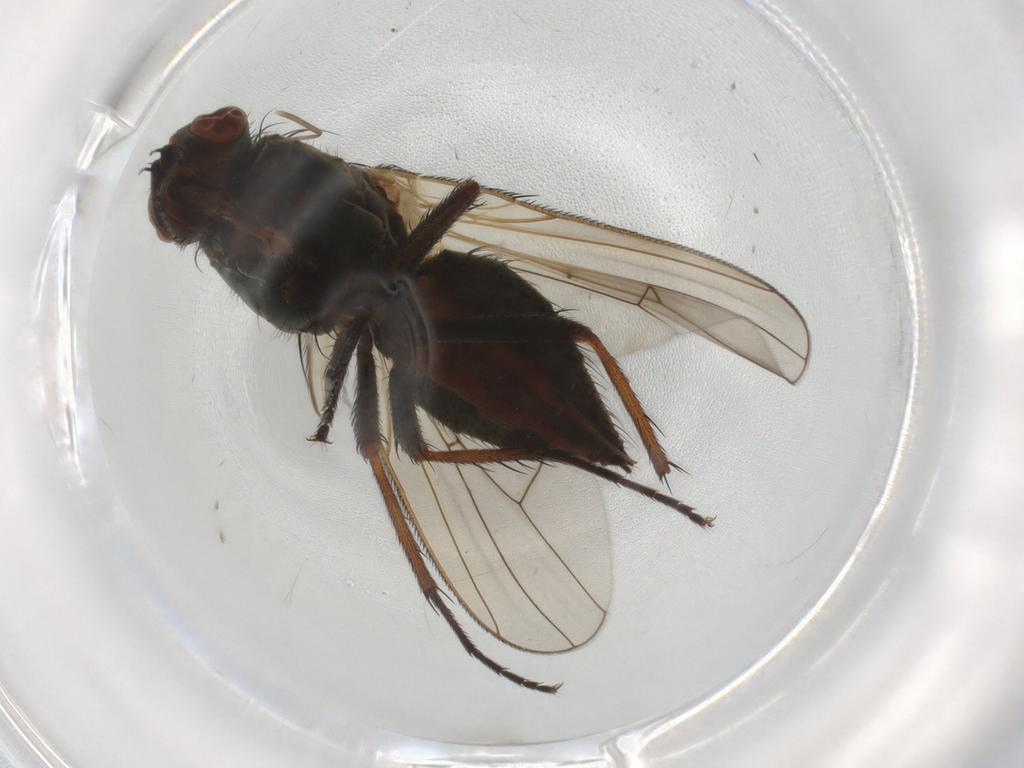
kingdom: Animalia
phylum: Arthropoda
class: Insecta
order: Diptera
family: Anthomyiidae
